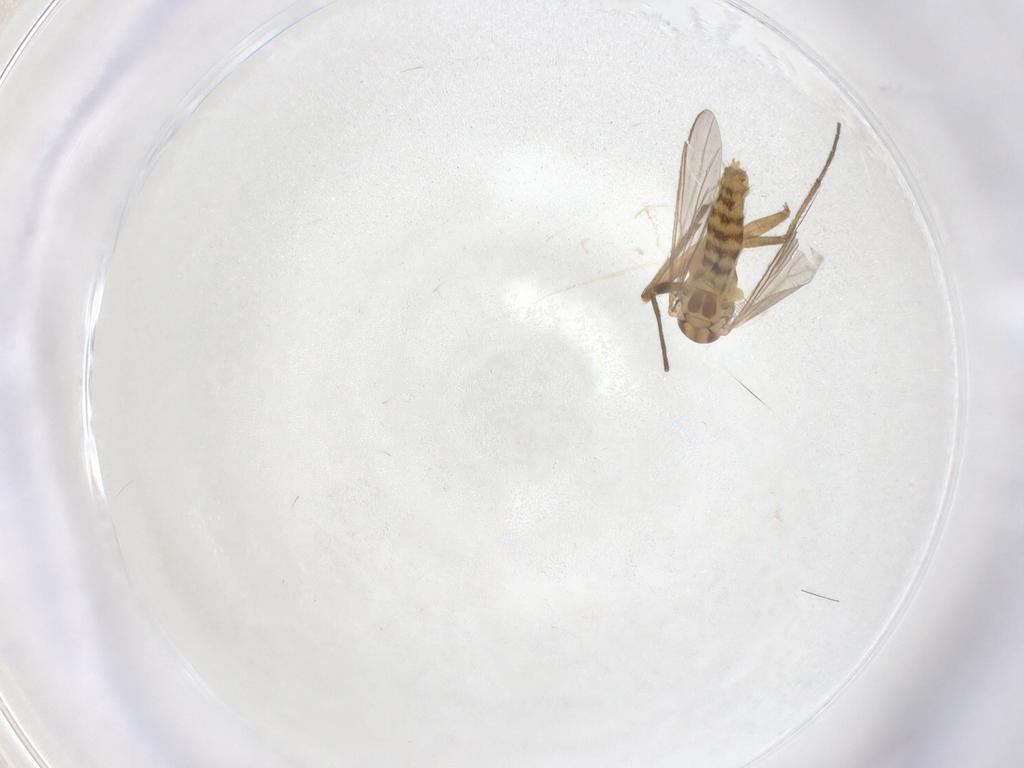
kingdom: Animalia
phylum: Arthropoda
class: Insecta
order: Diptera
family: Chironomidae
